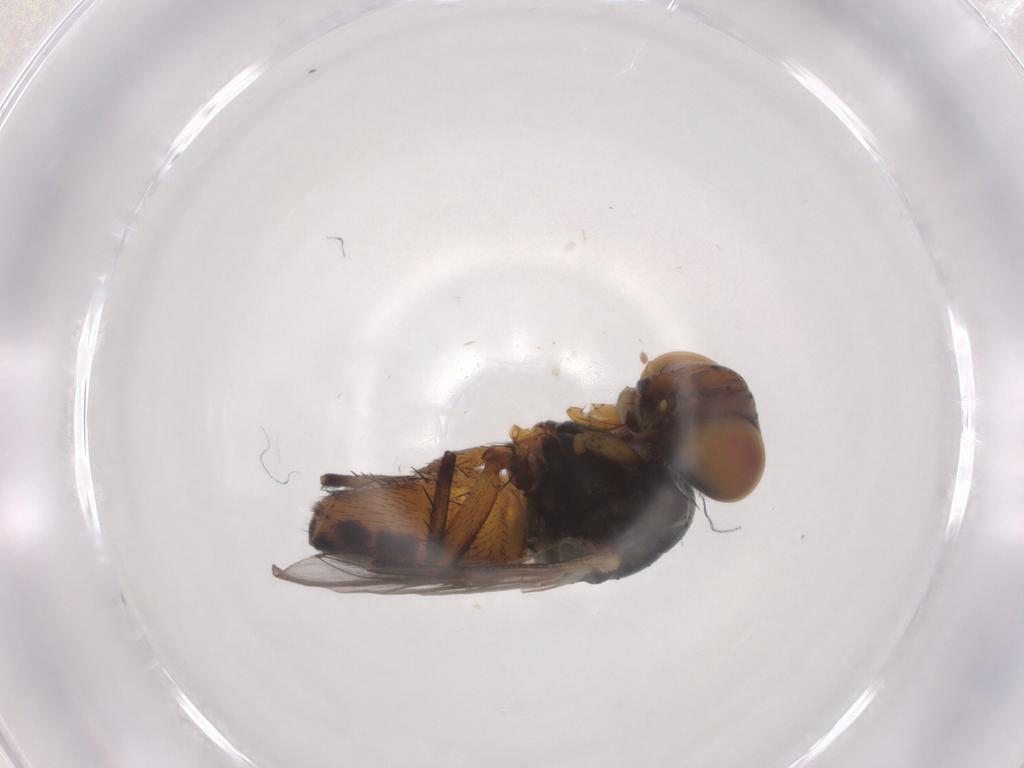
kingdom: Animalia
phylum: Arthropoda
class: Insecta
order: Diptera
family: Sarcophagidae
